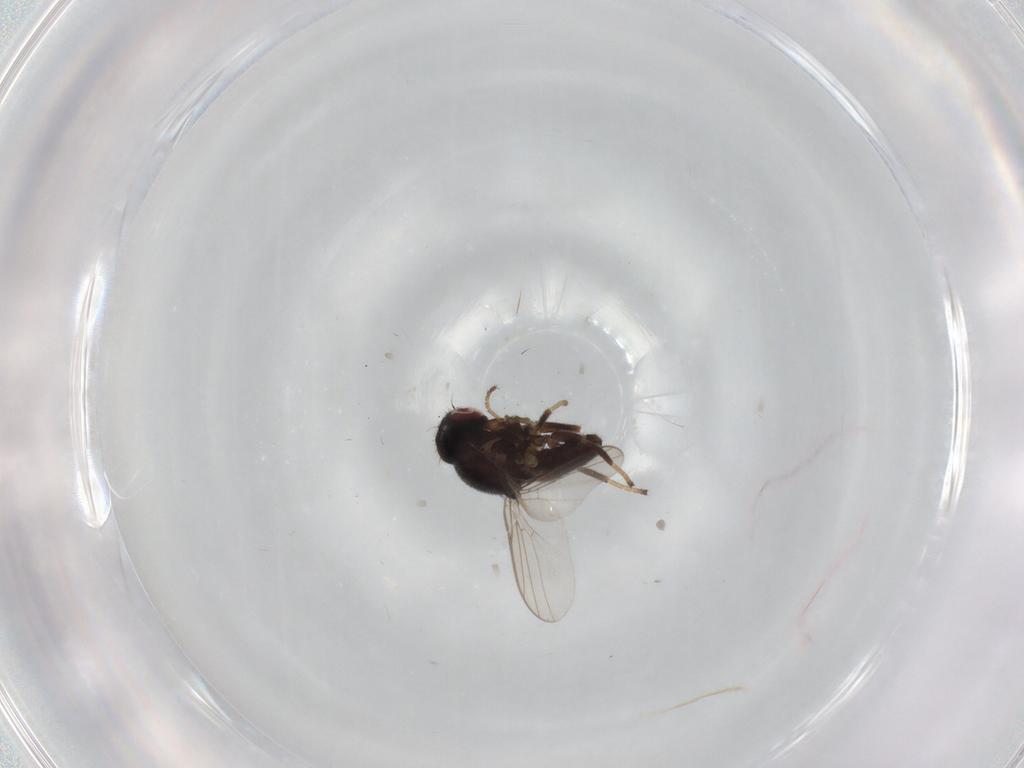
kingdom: Animalia
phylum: Arthropoda
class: Insecta
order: Diptera
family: Chloropidae
